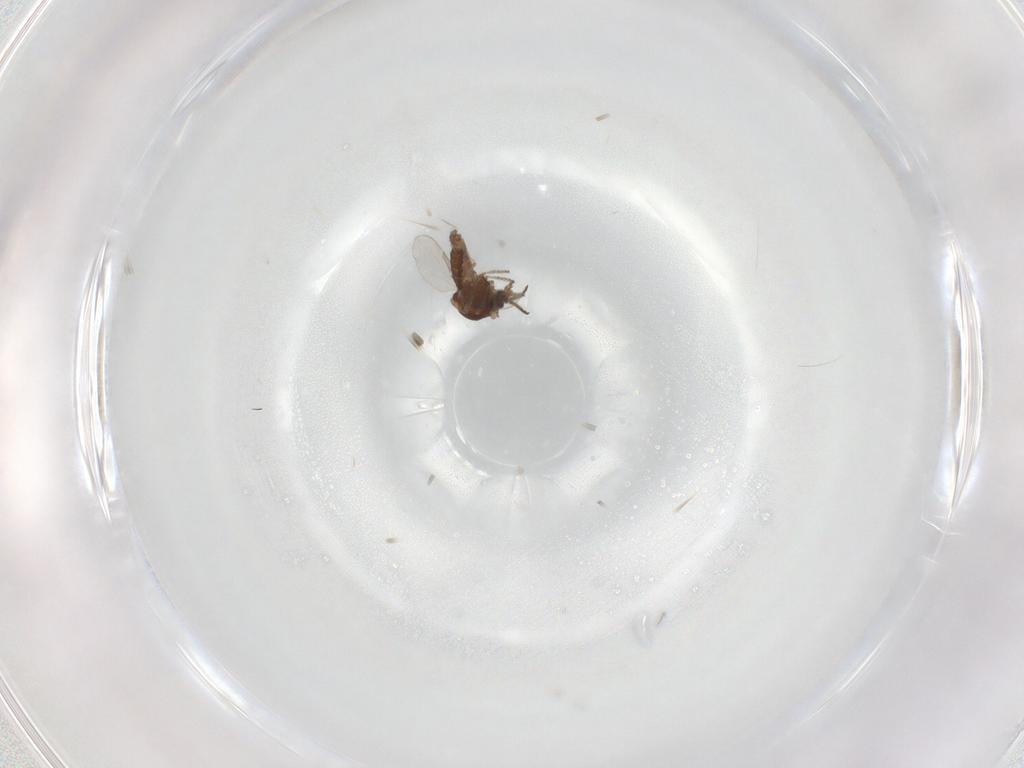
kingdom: Animalia
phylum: Arthropoda
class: Insecta
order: Diptera
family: Ceratopogonidae
